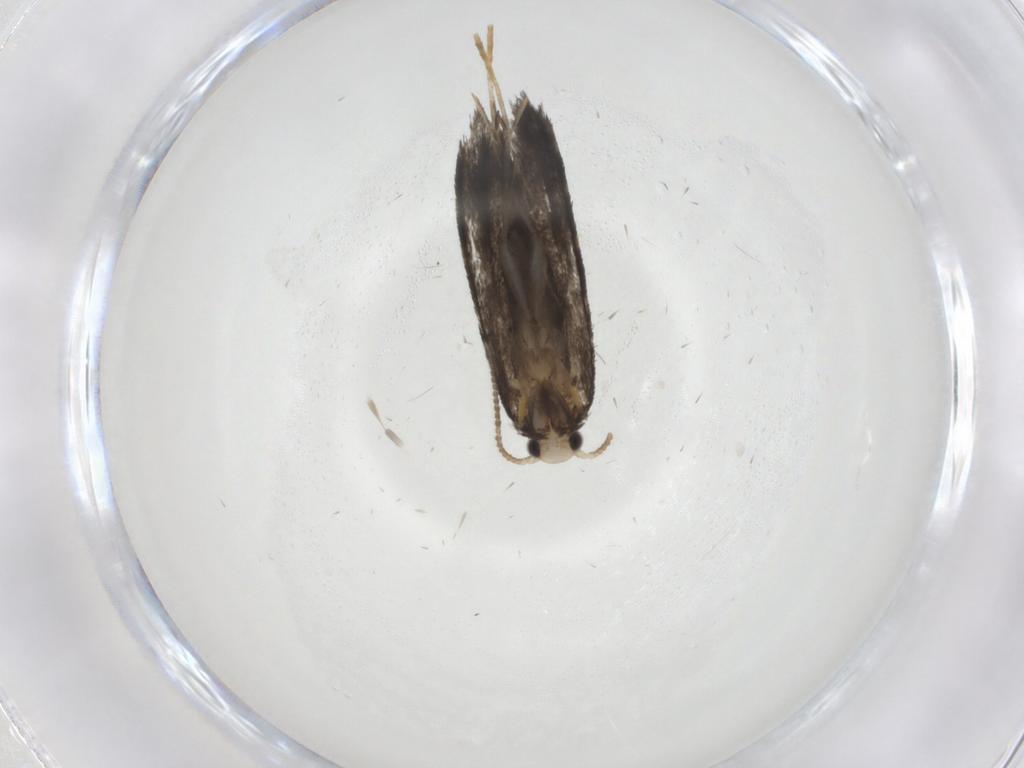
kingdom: Animalia
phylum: Arthropoda
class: Insecta
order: Lepidoptera
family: Psychidae
